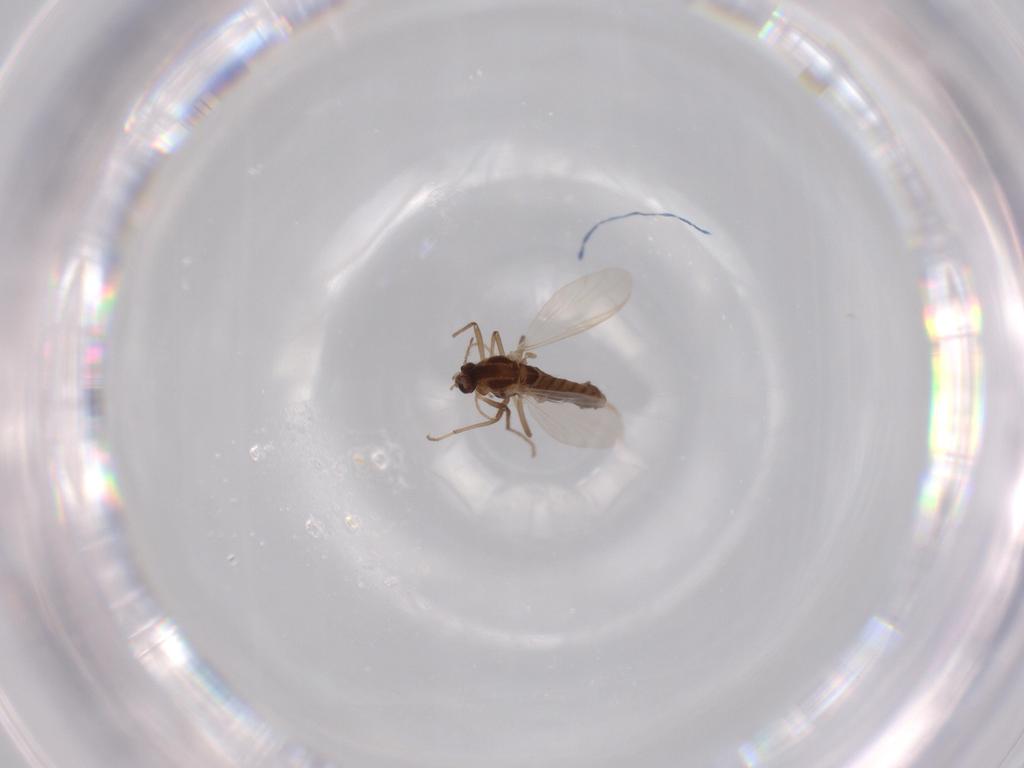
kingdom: Animalia
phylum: Arthropoda
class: Insecta
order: Diptera
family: Chironomidae
